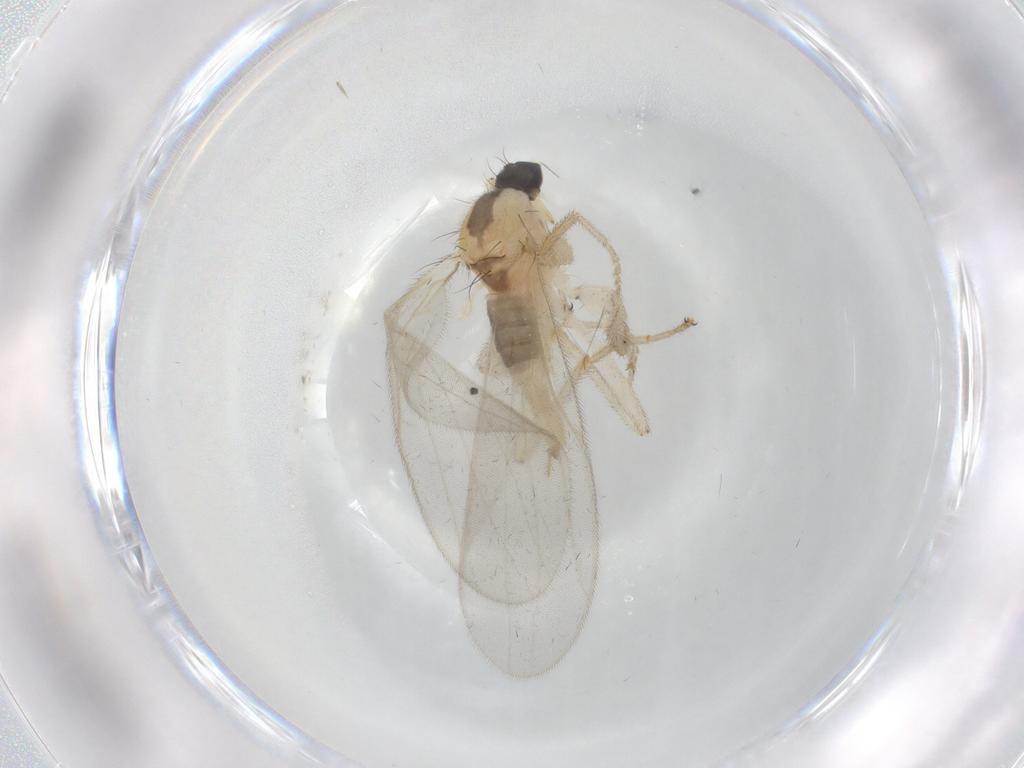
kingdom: Animalia
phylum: Arthropoda
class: Insecta
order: Diptera
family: Hybotidae
